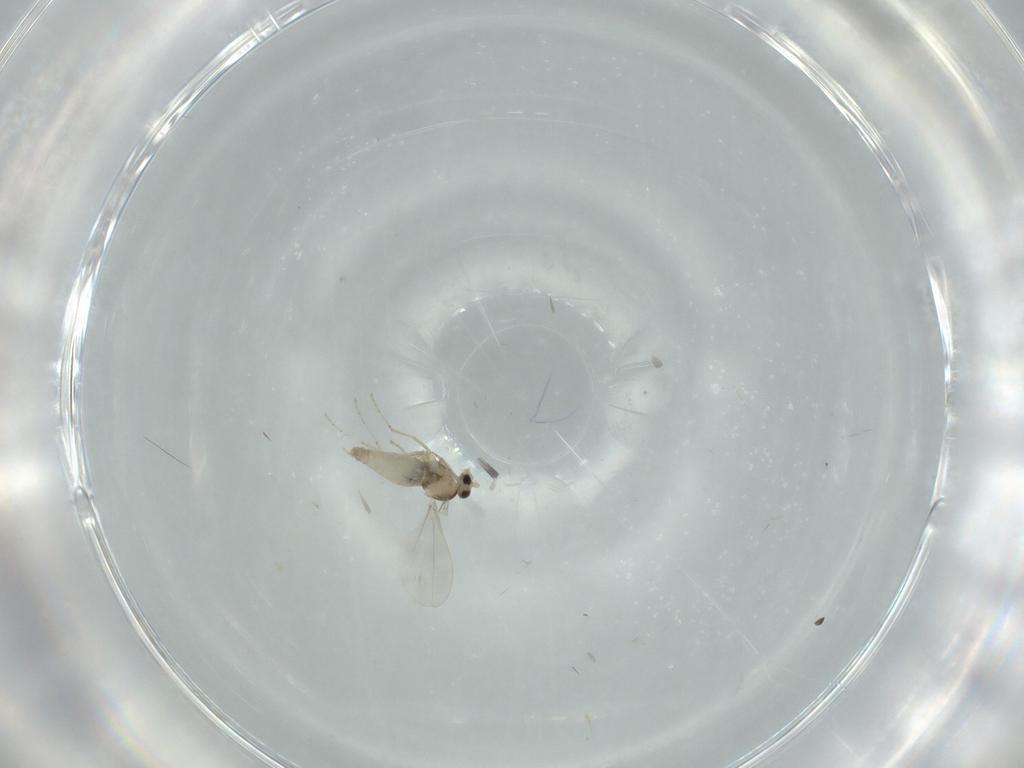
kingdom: Animalia
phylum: Arthropoda
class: Insecta
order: Diptera
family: Cecidomyiidae
